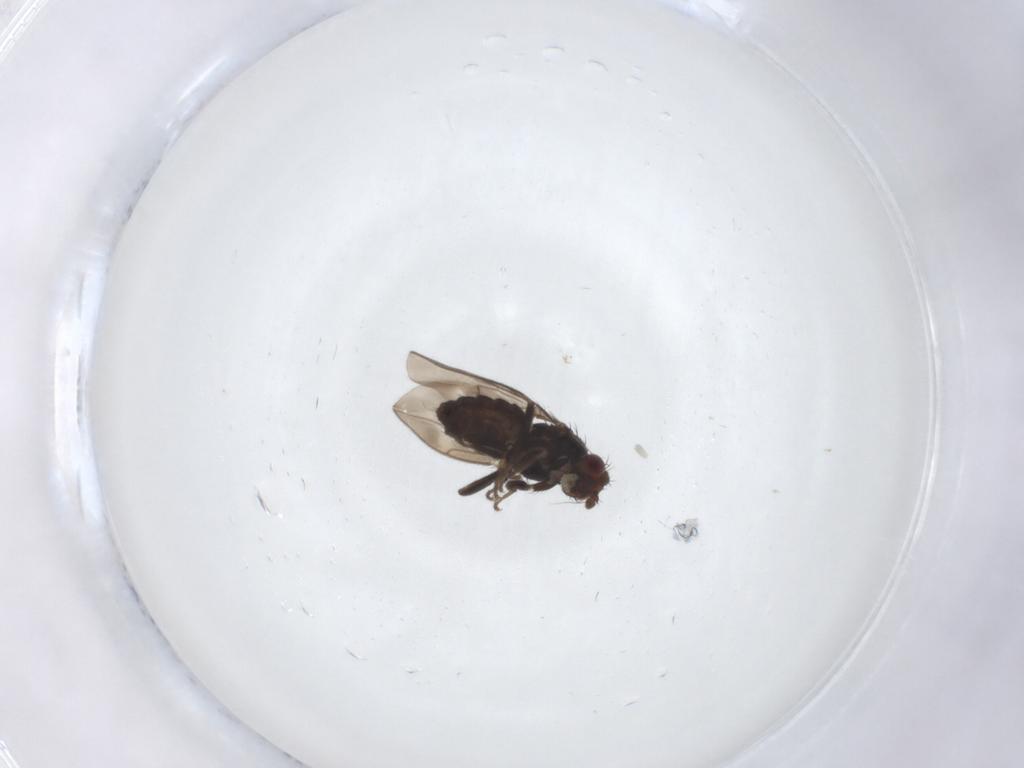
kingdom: Animalia
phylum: Arthropoda
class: Insecta
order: Diptera
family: Sphaeroceridae
